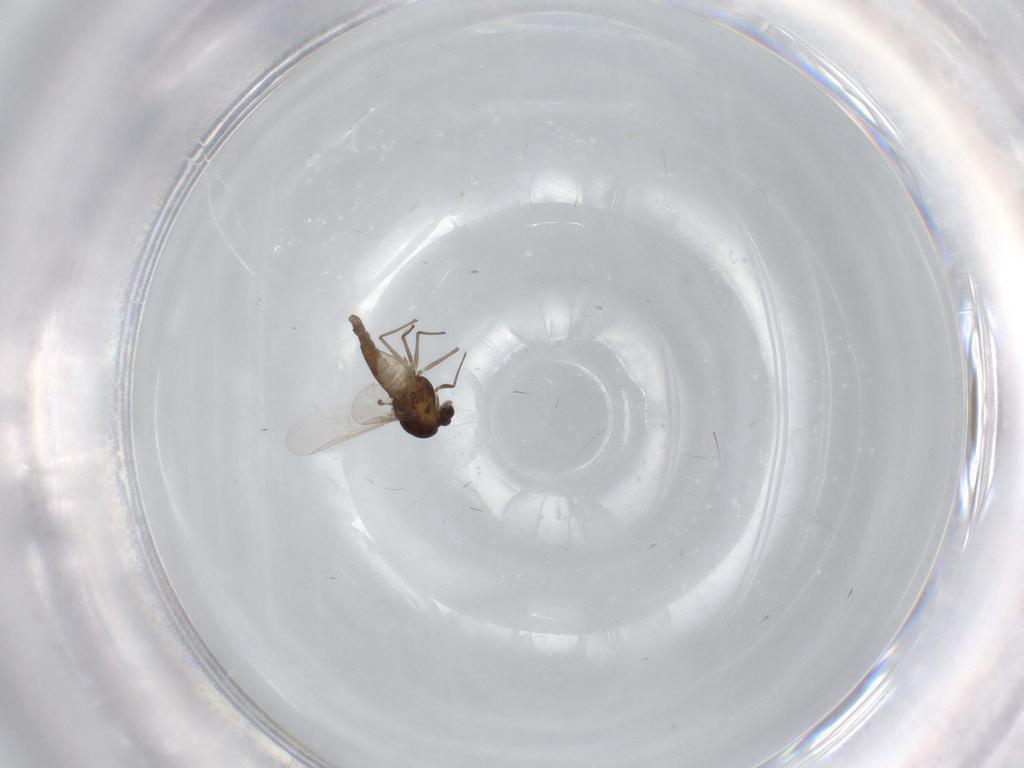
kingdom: Animalia
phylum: Arthropoda
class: Insecta
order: Diptera
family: Chironomidae
